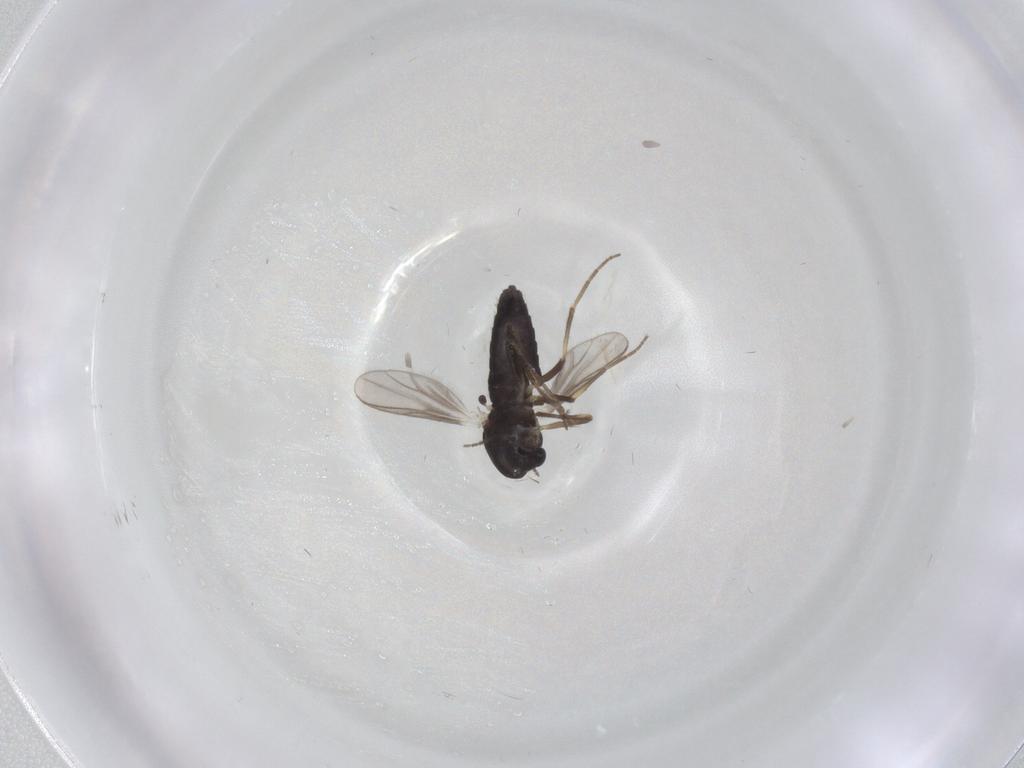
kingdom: Animalia
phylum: Arthropoda
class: Insecta
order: Diptera
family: Chironomidae
